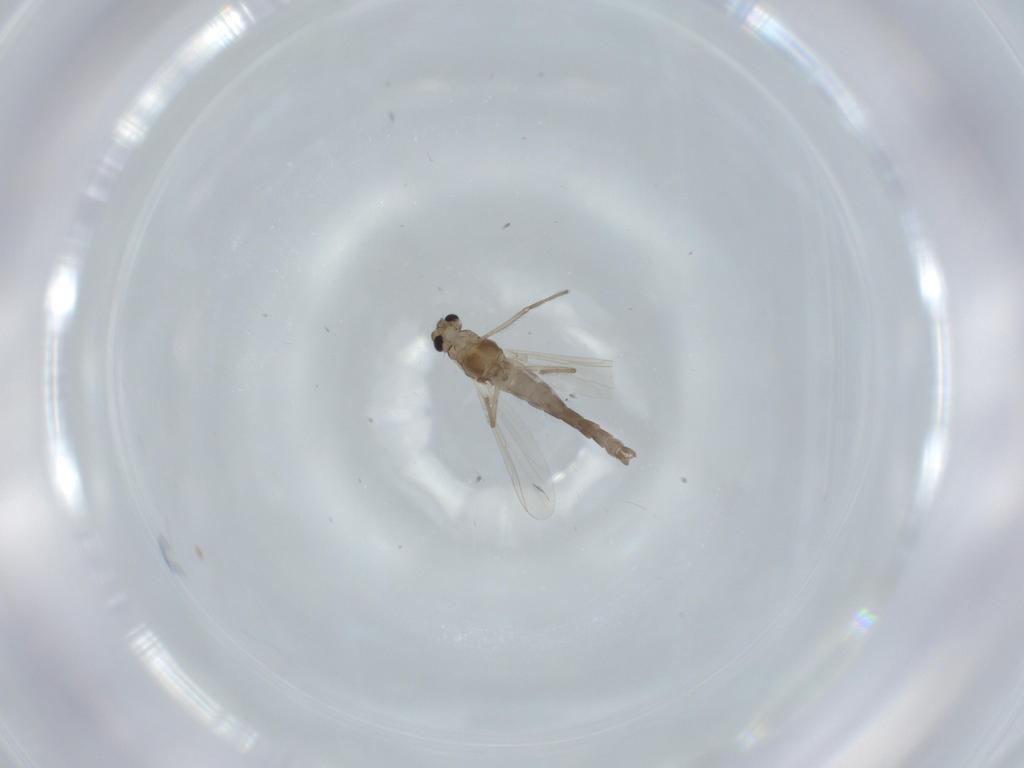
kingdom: Animalia
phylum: Arthropoda
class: Insecta
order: Diptera
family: Chironomidae
